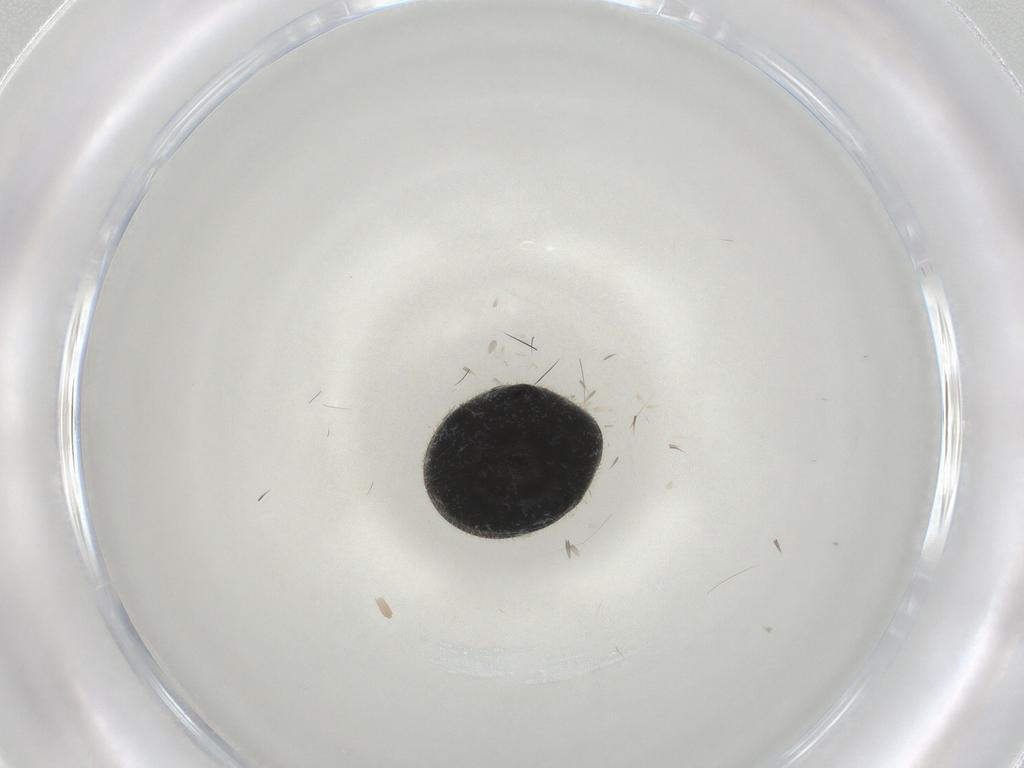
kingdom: Animalia
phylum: Arthropoda
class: Insecta
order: Coleoptera
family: Ptinidae
